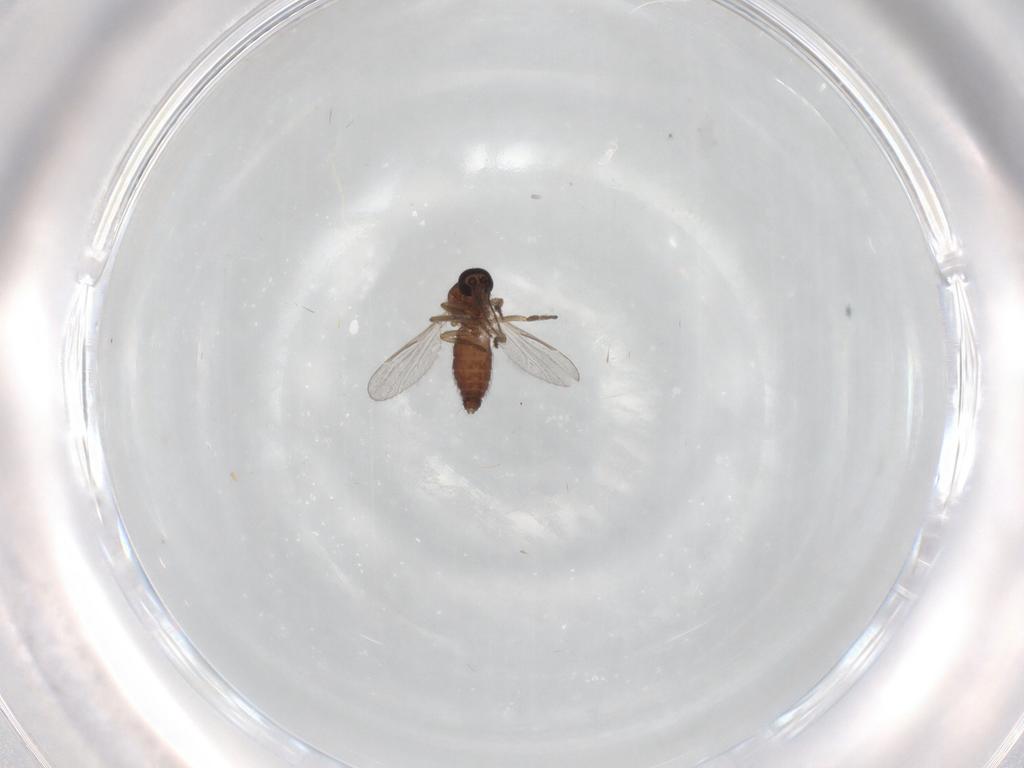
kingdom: Animalia
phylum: Arthropoda
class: Insecta
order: Diptera
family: Ceratopogonidae
